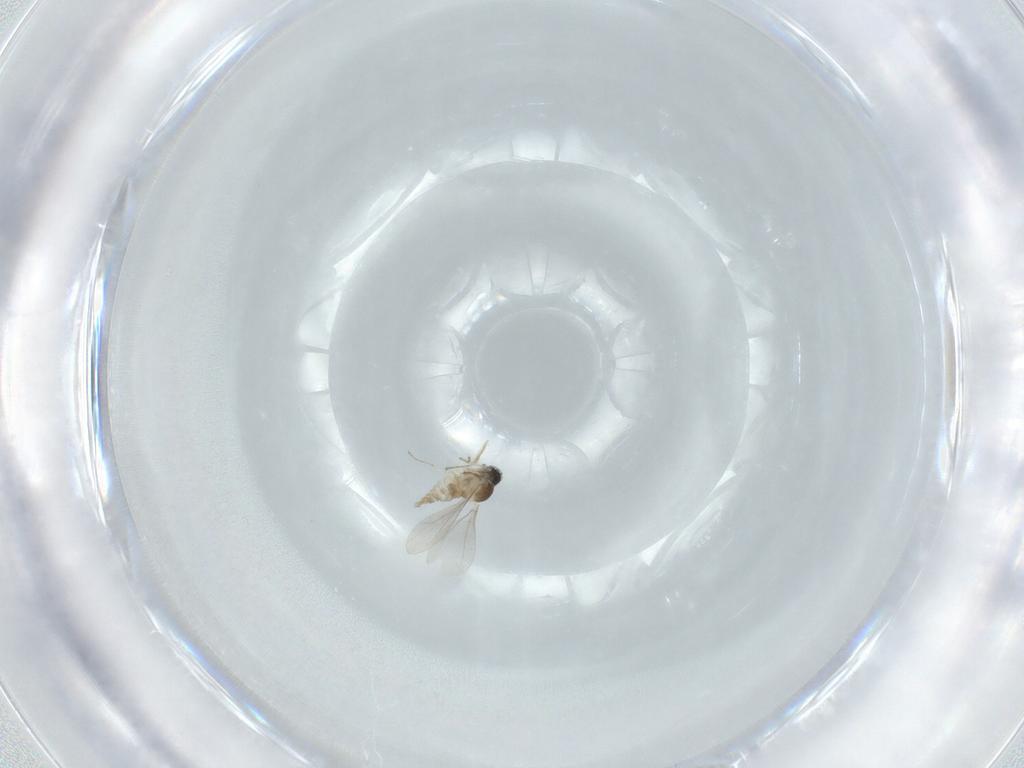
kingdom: Animalia
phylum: Arthropoda
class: Insecta
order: Diptera
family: Cecidomyiidae
